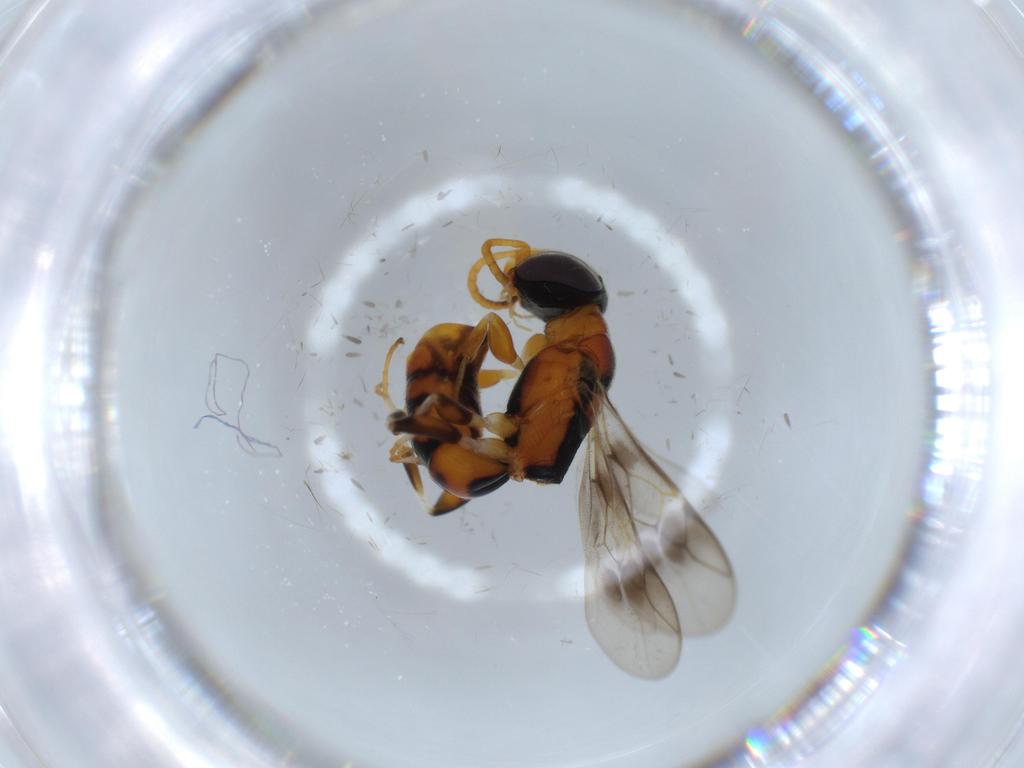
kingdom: Animalia
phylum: Arthropoda
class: Insecta
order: Hymenoptera
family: Crabronidae
